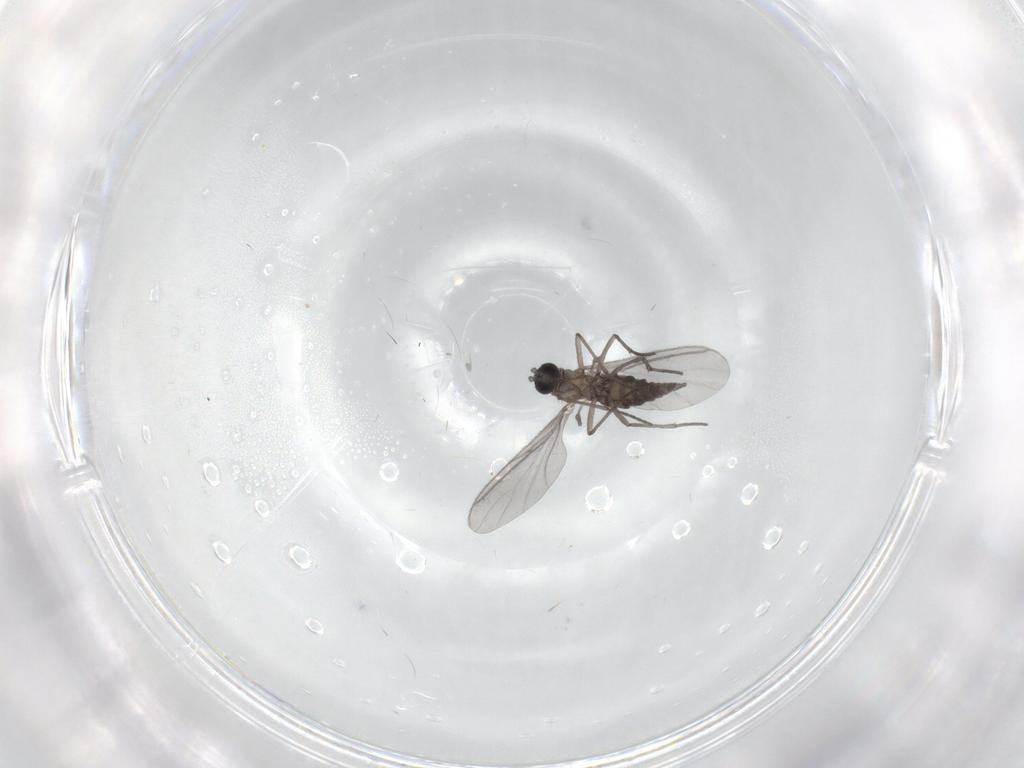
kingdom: Animalia
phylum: Arthropoda
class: Insecta
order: Diptera
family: Chironomidae
